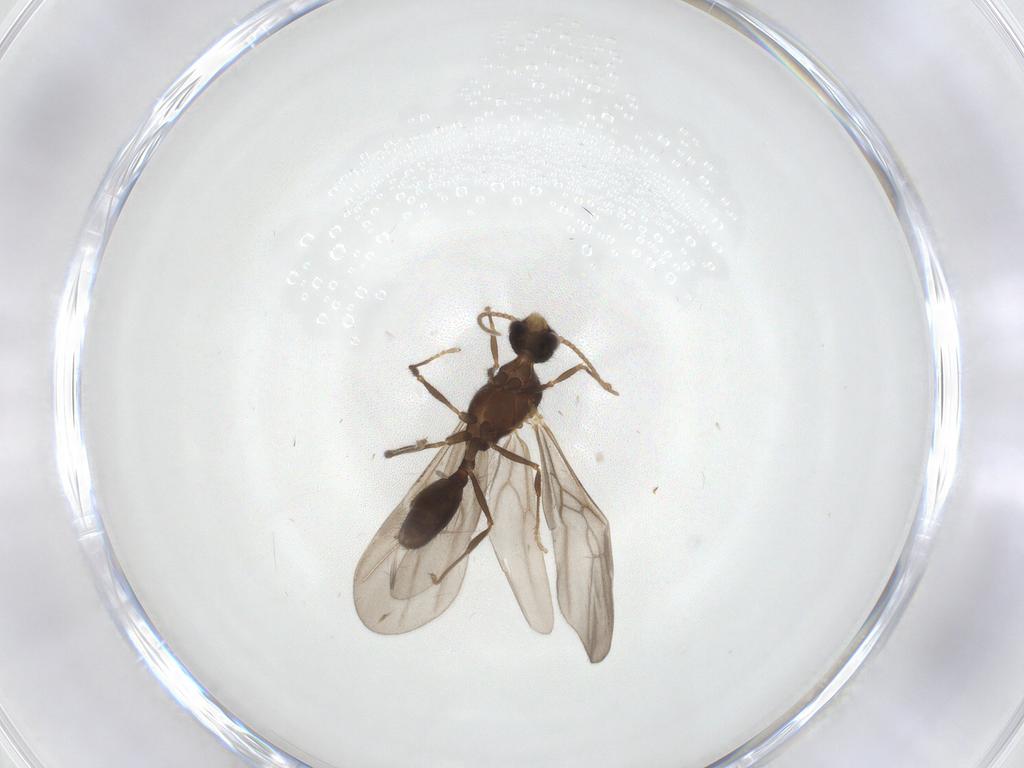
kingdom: Animalia
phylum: Arthropoda
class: Insecta
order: Hymenoptera
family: Formicidae
